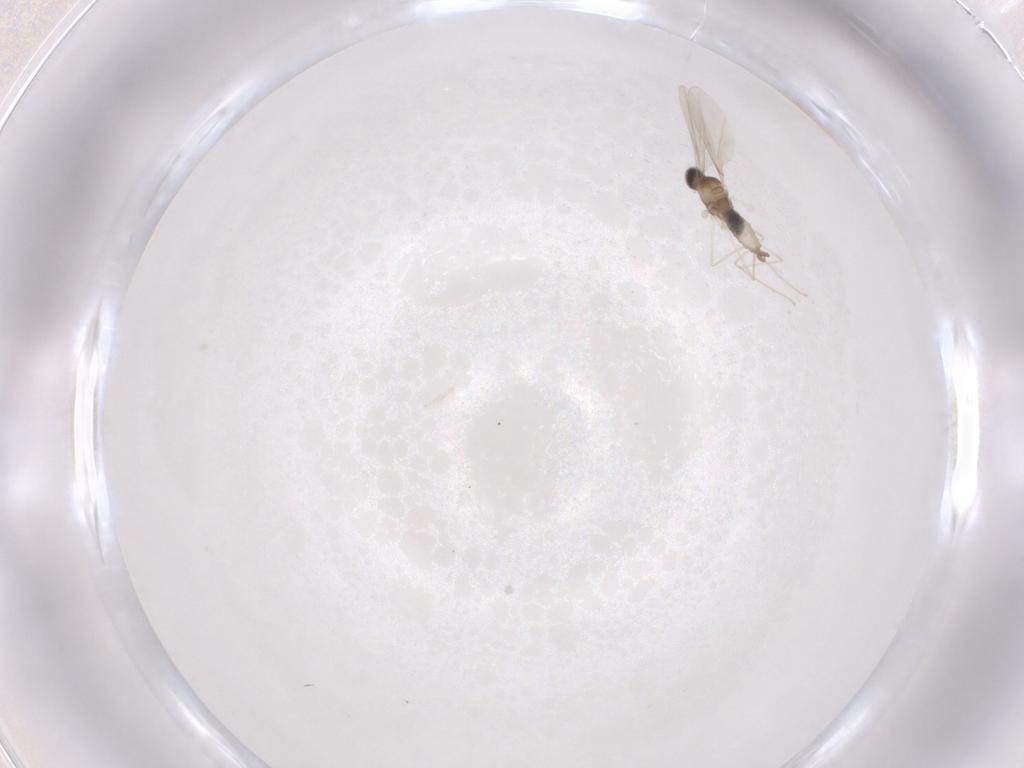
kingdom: Animalia
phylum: Arthropoda
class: Insecta
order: Diptera
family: Cecidomyiidae
